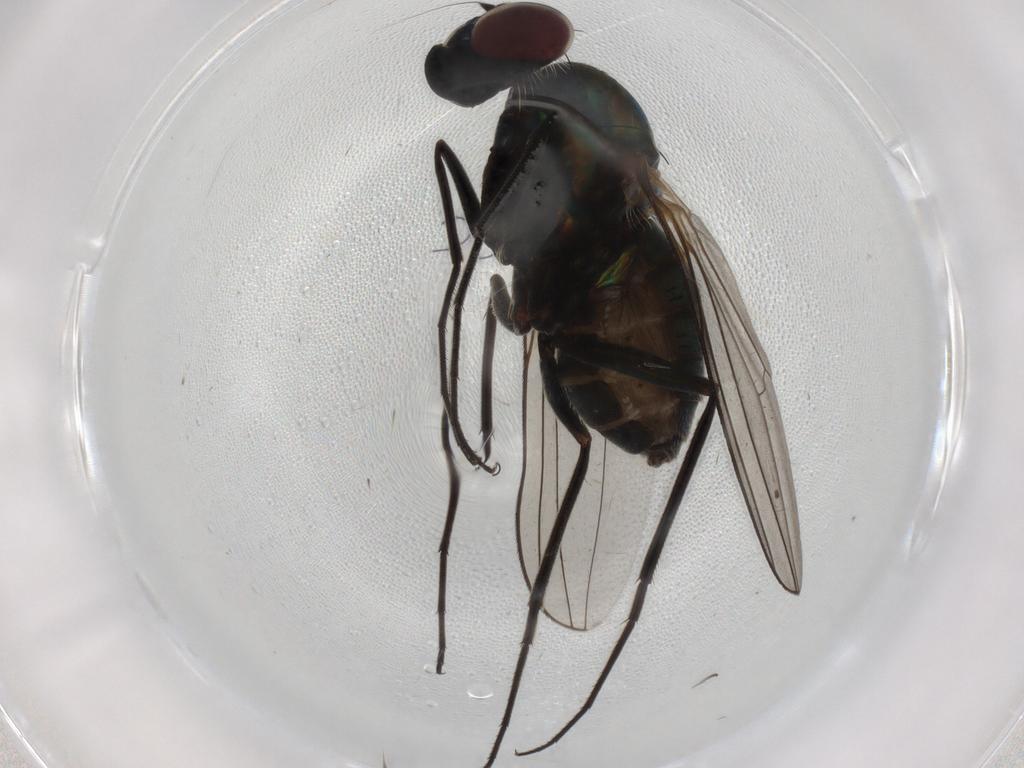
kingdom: Animalia
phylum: Arthropoda
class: Insecta
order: Diptera
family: Dolichopodidae
